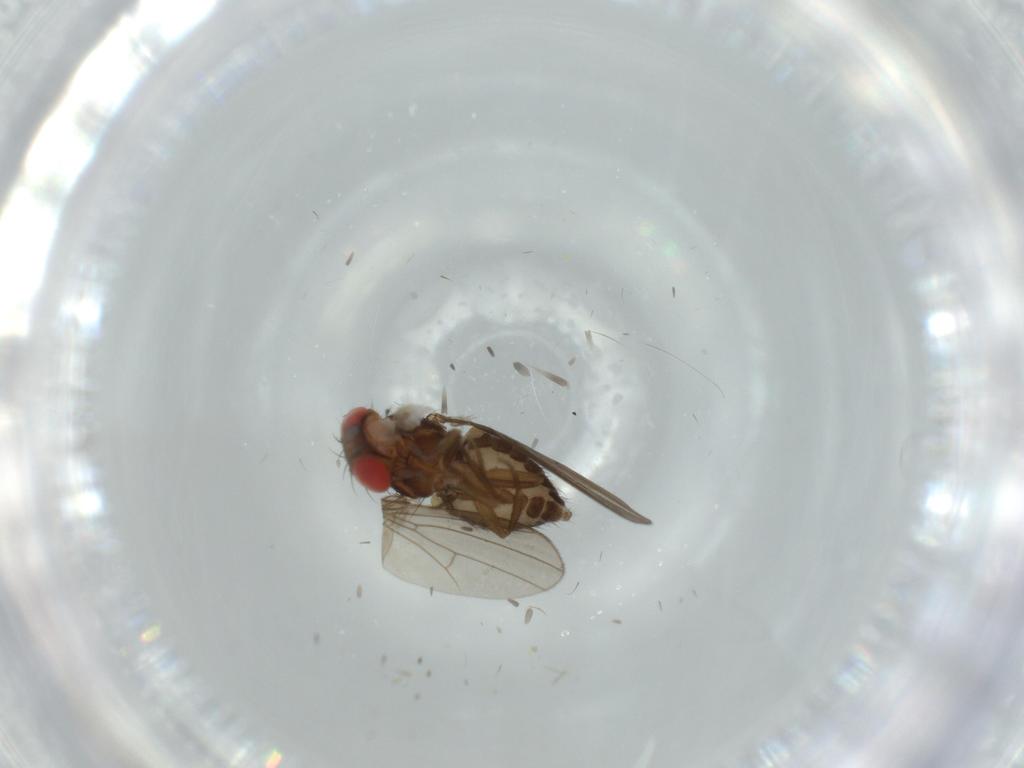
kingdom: Animalia
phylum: Arthropoda
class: Insecta
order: Diptera
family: Drosophilidae
